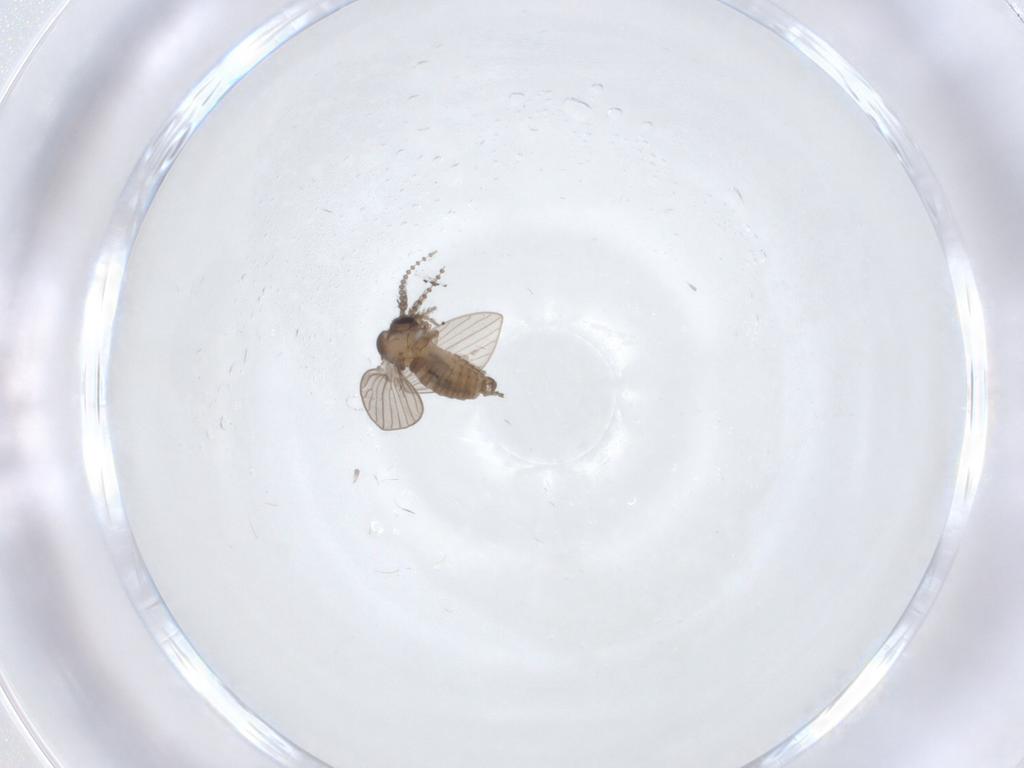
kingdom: Animalia
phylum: Arthropoda
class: Insecta
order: Diptera
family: Psychodidae
